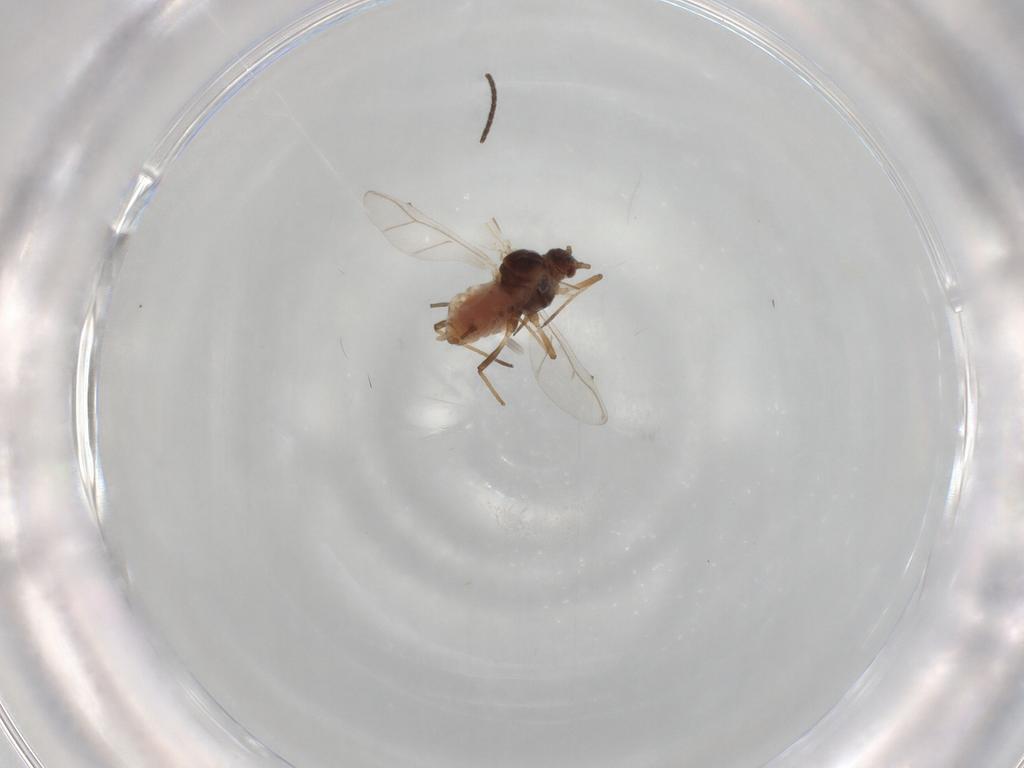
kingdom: Animalia
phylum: Arthropoda
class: Insecta
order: Hemiptera
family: Aphididae
